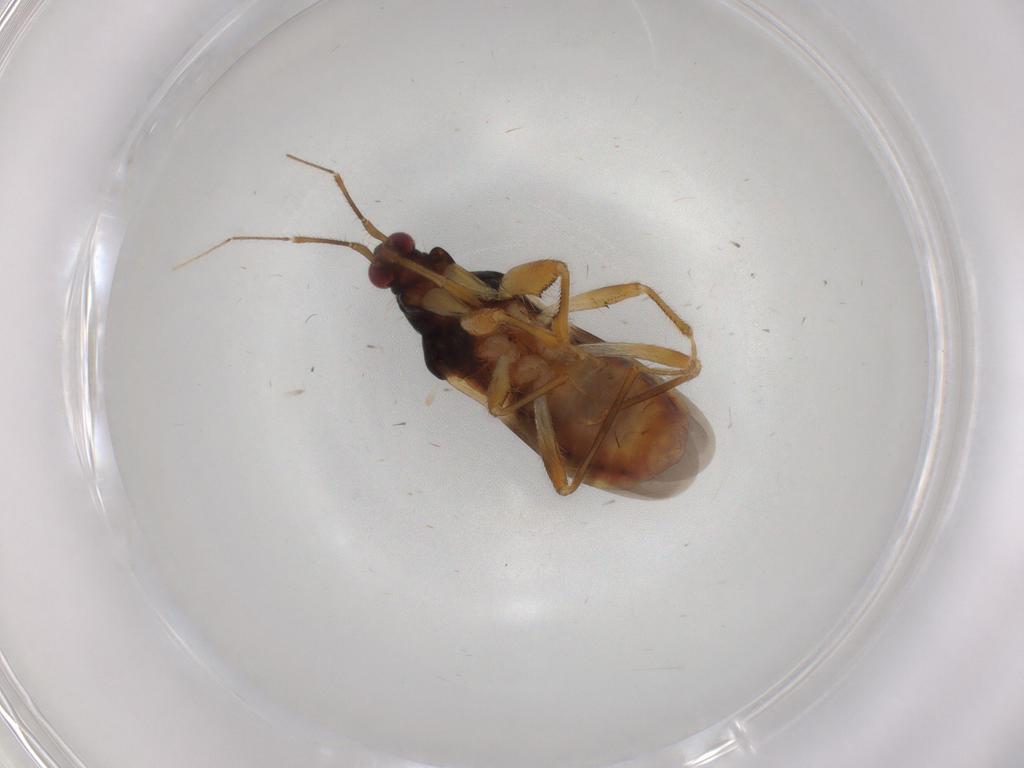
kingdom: Animalia
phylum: Arthropoda
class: Insecta
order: Hemiptera
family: Nabidae
